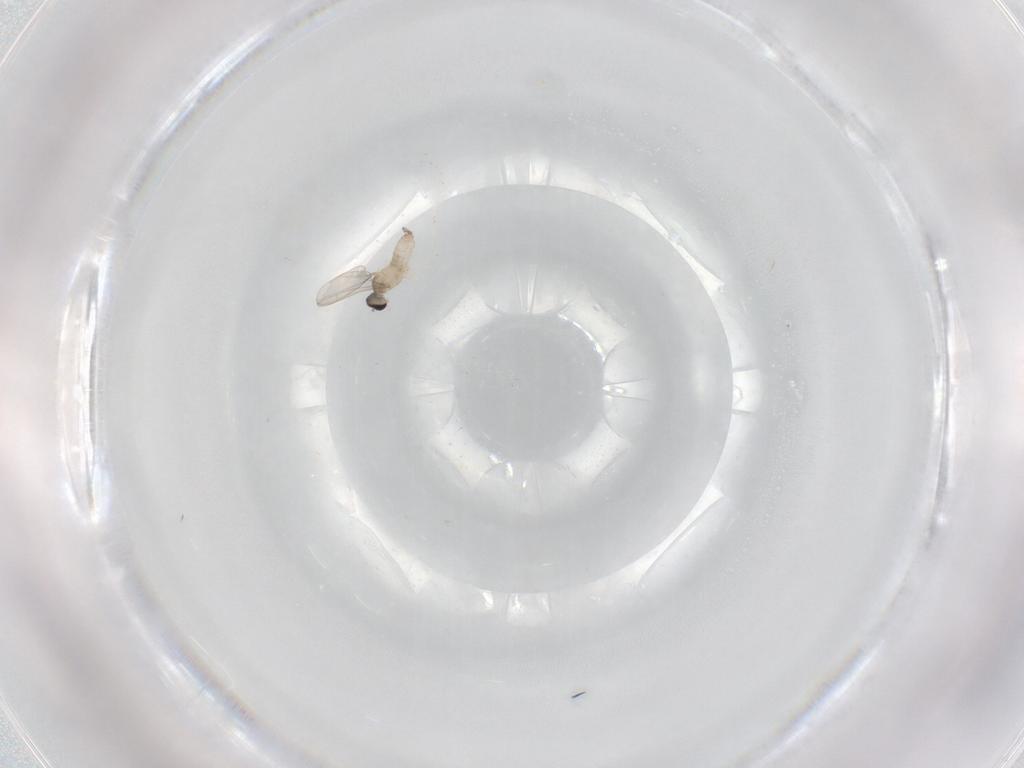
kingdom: Animalia
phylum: Arthropoda
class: Insecta
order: Diptera
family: Cecidomyiidae
